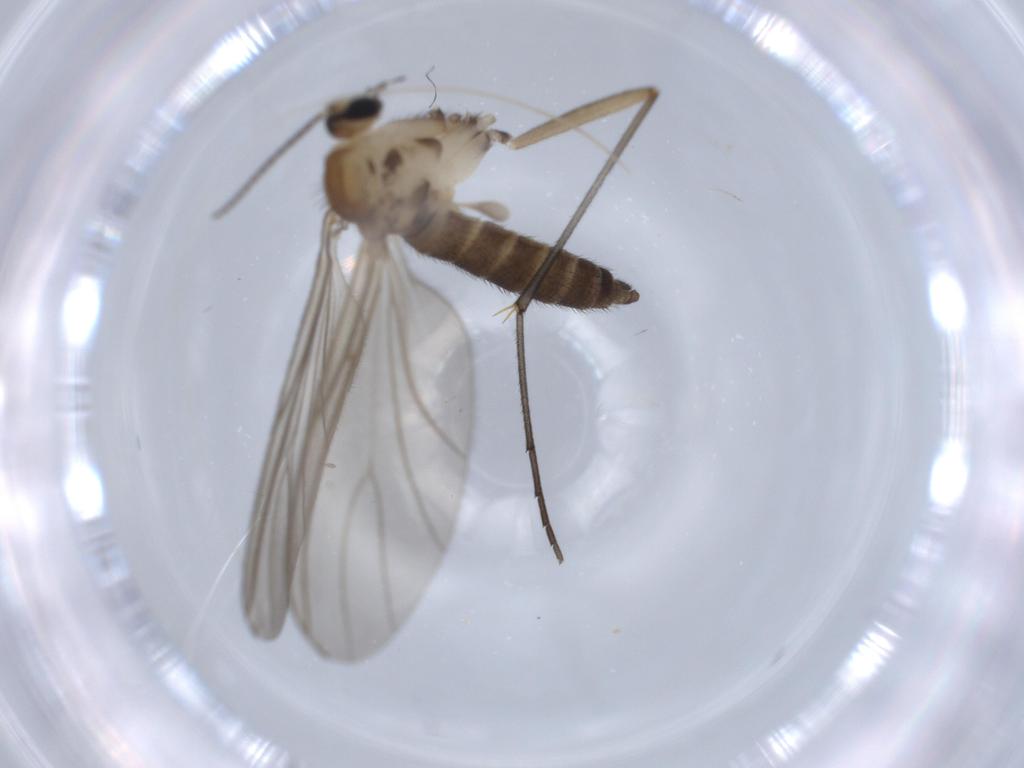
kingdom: Animalia
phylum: Arthropoda
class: Insecta
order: Diptera
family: Sciaridae
